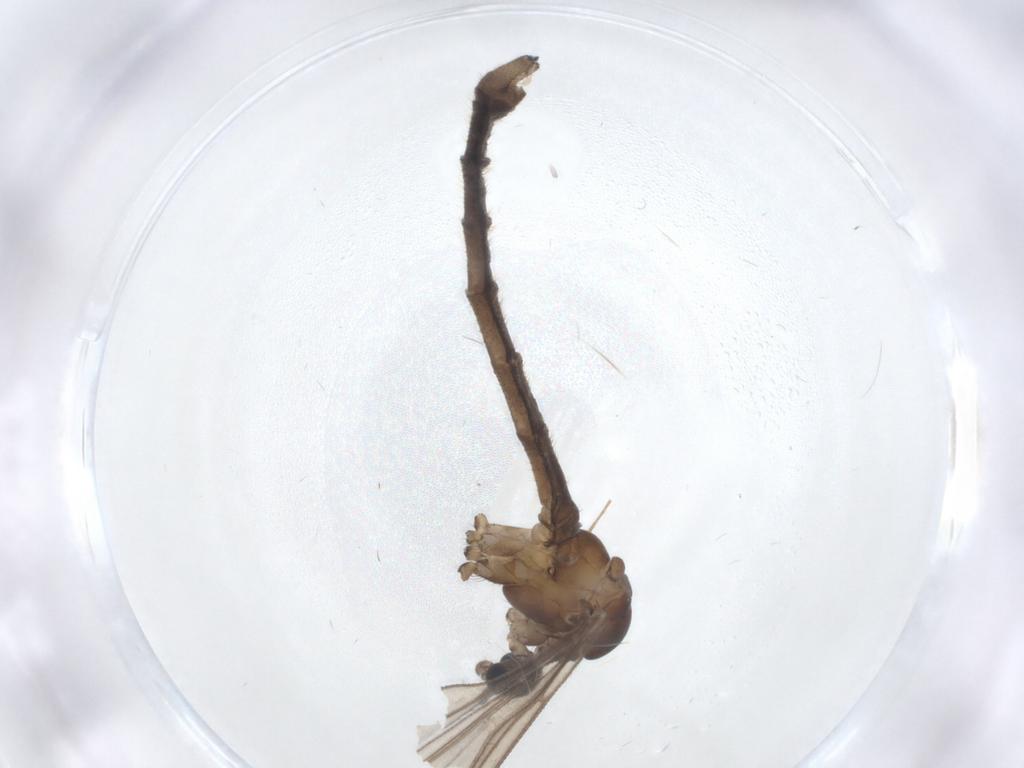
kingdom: Animalia
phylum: Arthropoda
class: Insecta
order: Diptera
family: Limoniidae
